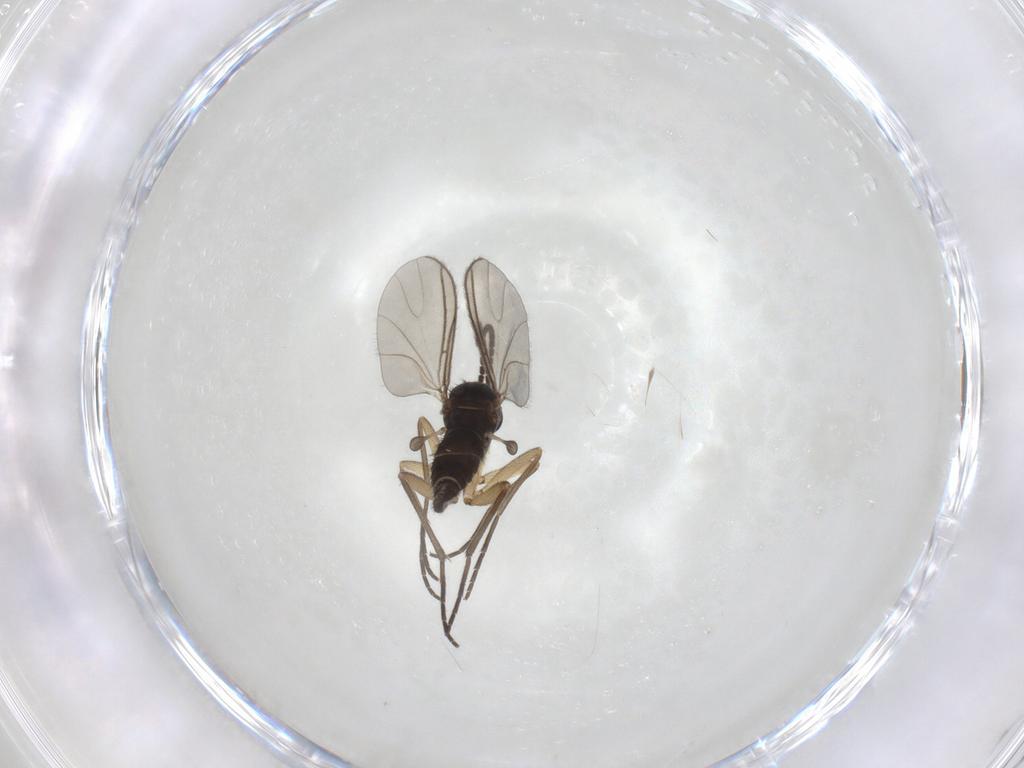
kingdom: Animalia
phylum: Arthropoda
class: Insecta
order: Diptera
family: Sciaridae
